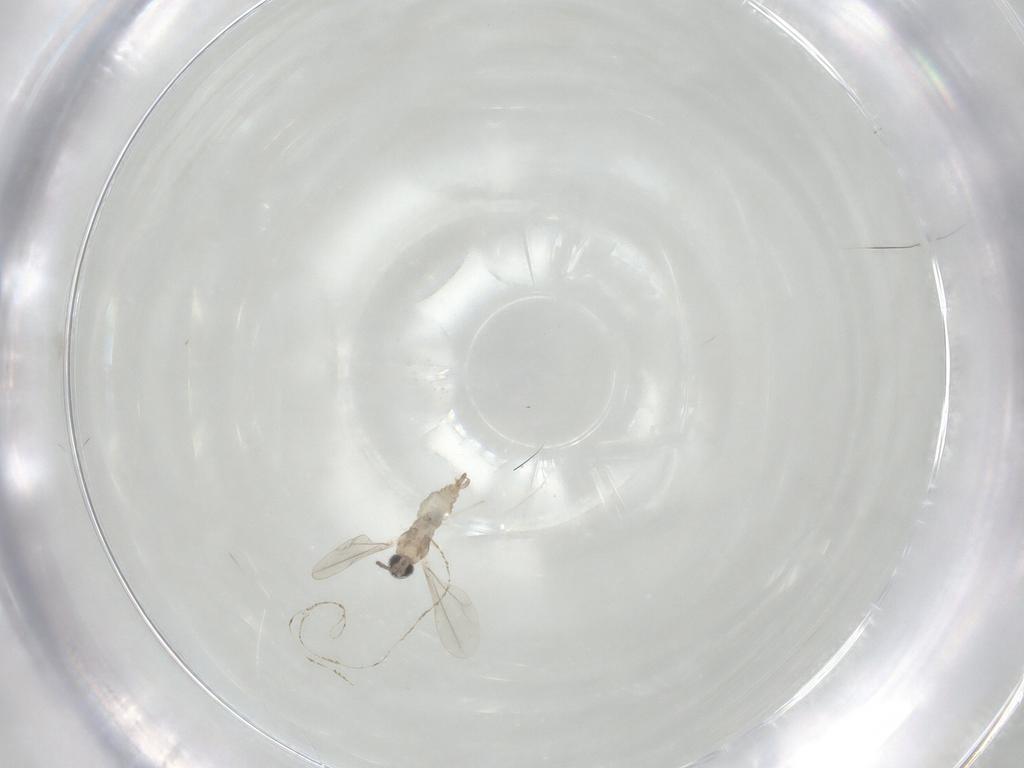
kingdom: Animalia
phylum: Arthropoda
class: Insecta
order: Diptera
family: Cecidomyiidae
